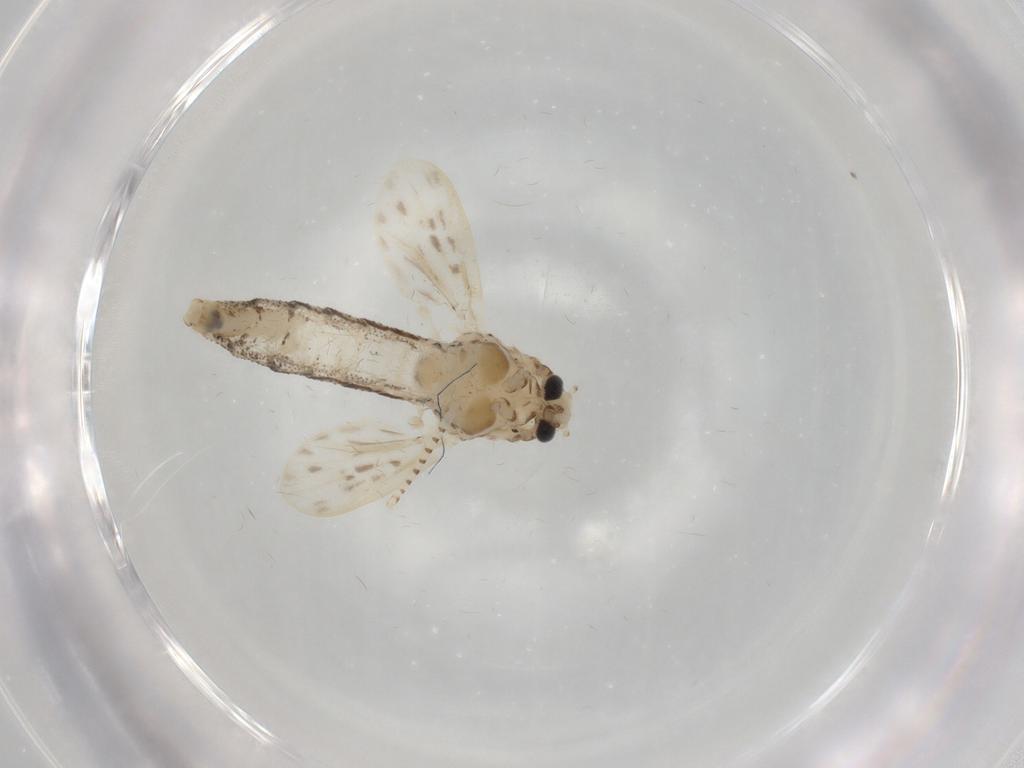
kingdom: Animalia
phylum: Arthropoda
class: Insecta
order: Diptera
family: Chaoboridae
